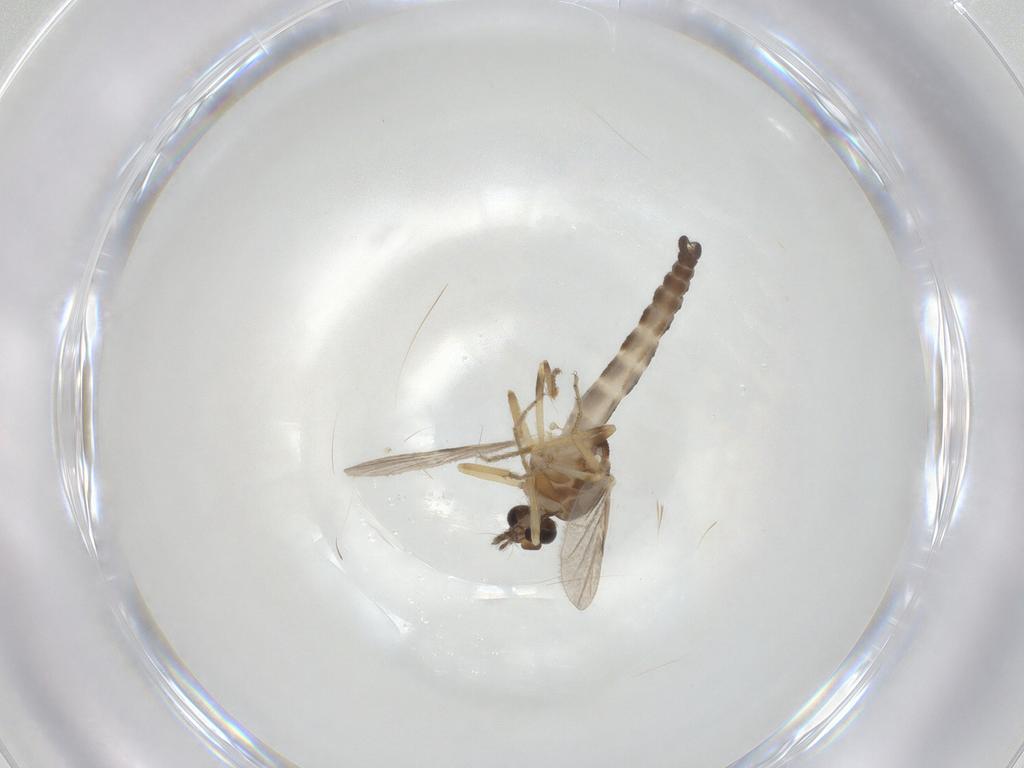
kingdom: Animalia
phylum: Arthropoda
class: Insecta
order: Diptera
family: Ceratopogonidae
